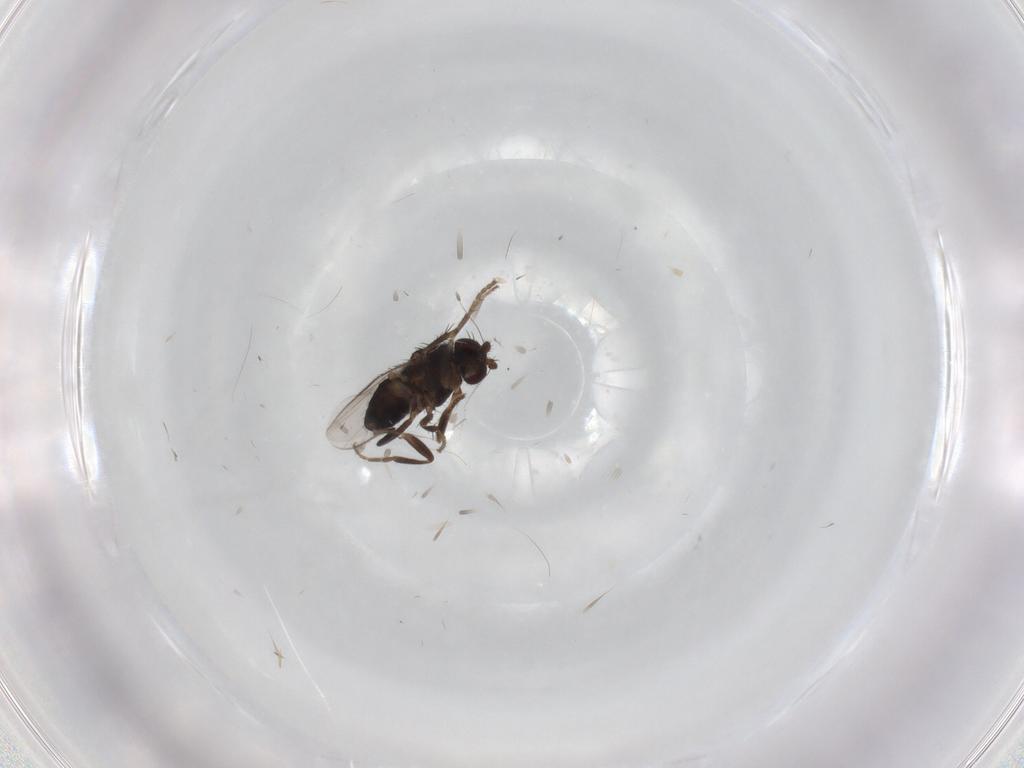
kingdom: Animalia
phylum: Arthropoda
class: Insecta
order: Diptera
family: Sphaeroceridae
